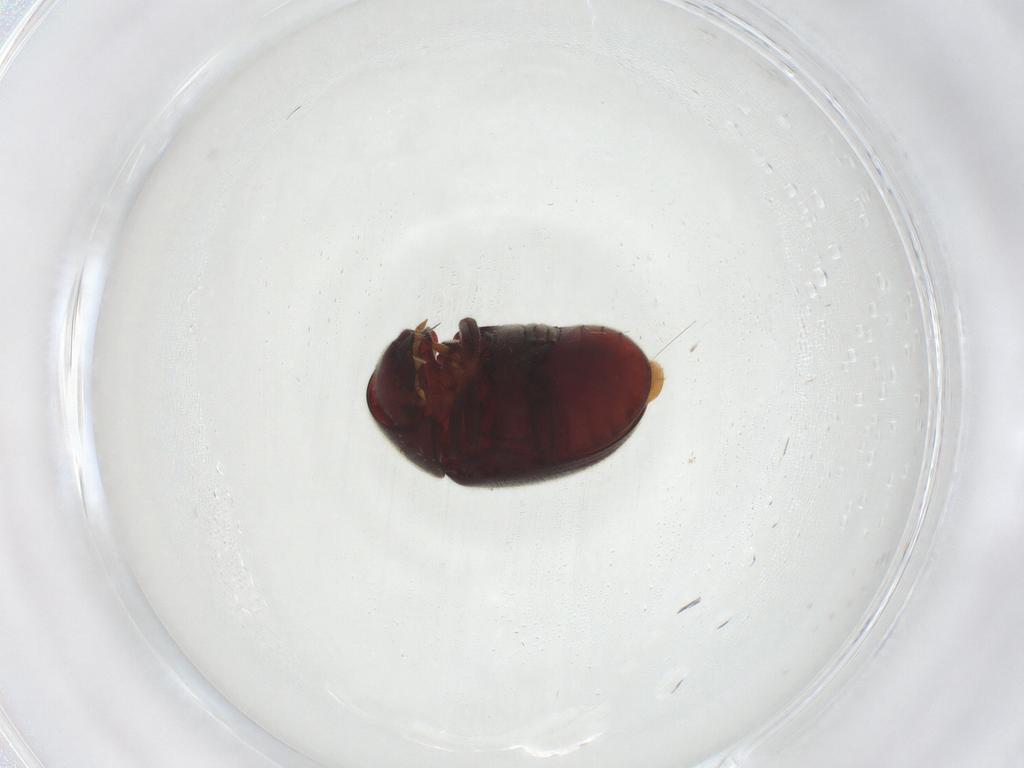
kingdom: Animalia
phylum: Arthropoda
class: Insecta
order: Coleoptera
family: Ptinidae
